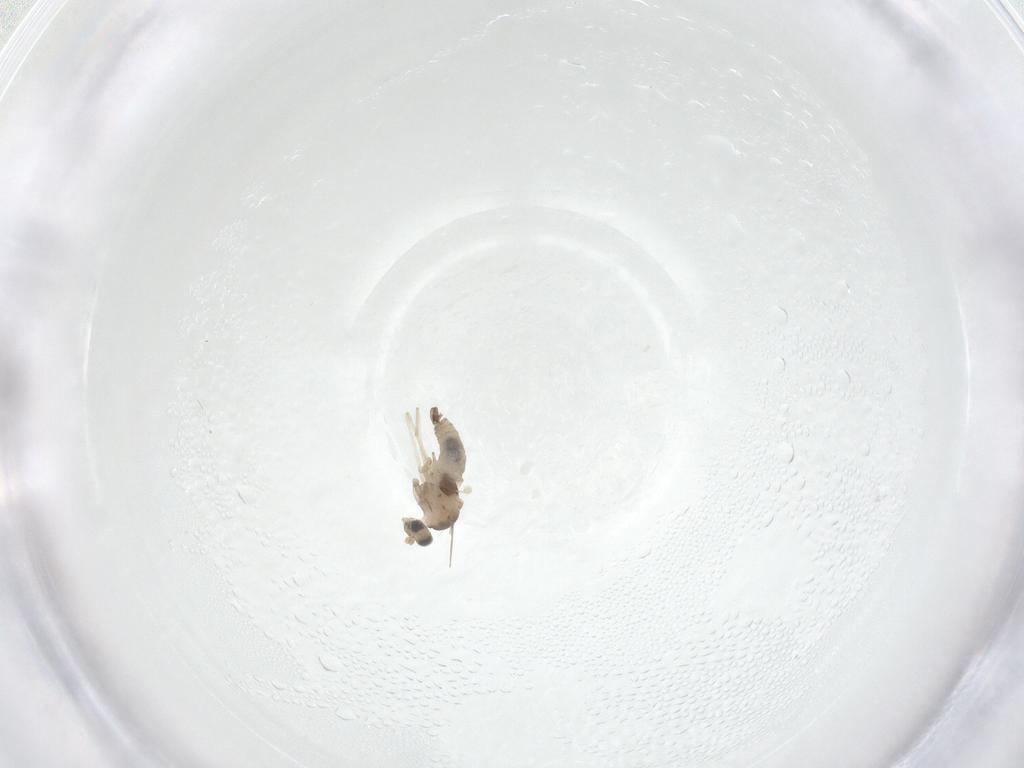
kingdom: Animalia
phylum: Arthropoda
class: Insecta
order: Diptera
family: Cecidomyiidae
